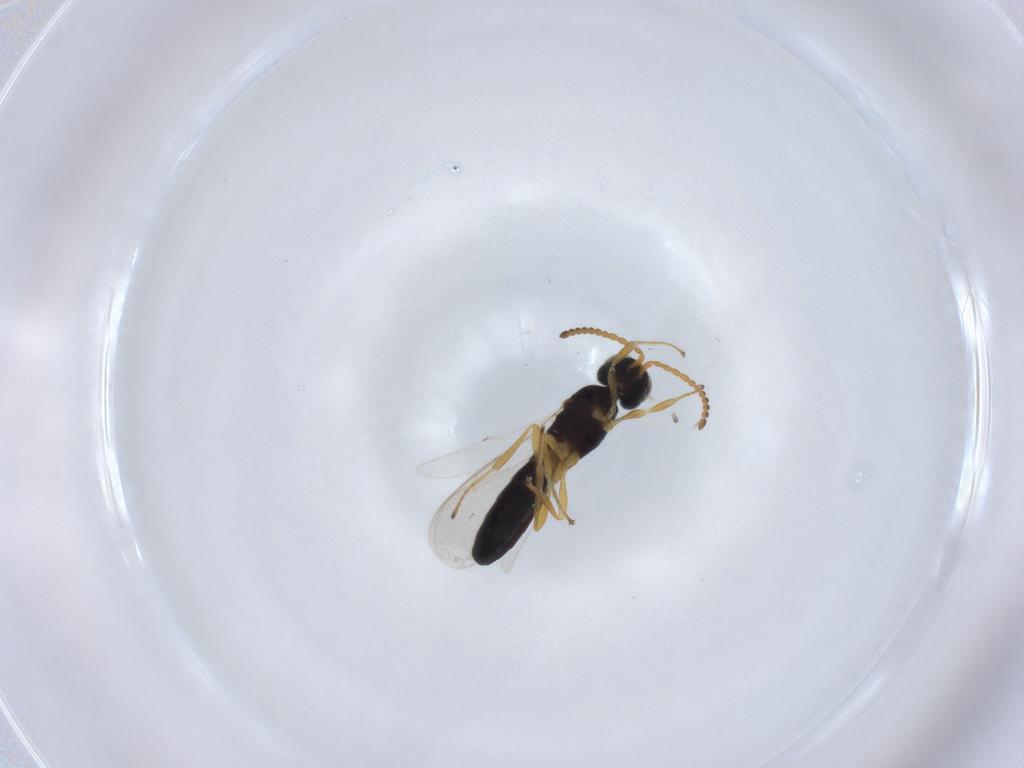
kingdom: Animalia
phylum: Arthropoda
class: Insecta
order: Hymenoptera
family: Scelionidae
